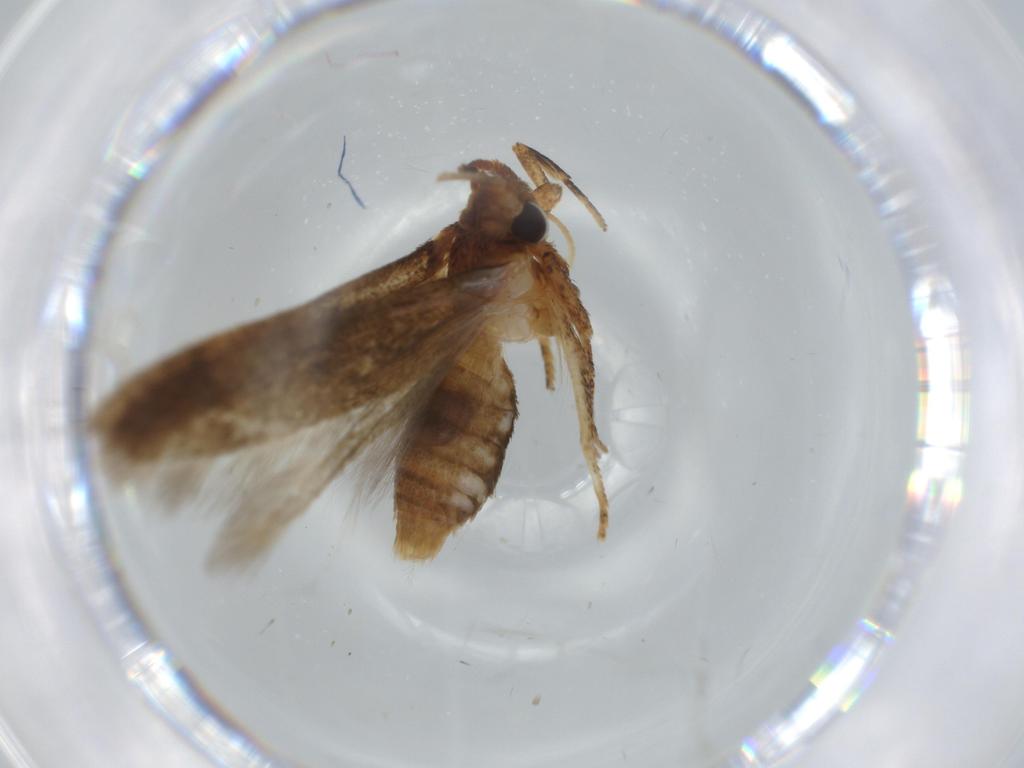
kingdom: Animalia
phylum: Arthropoda
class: Insecta
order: Lepidoptera
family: Blastobasidae
